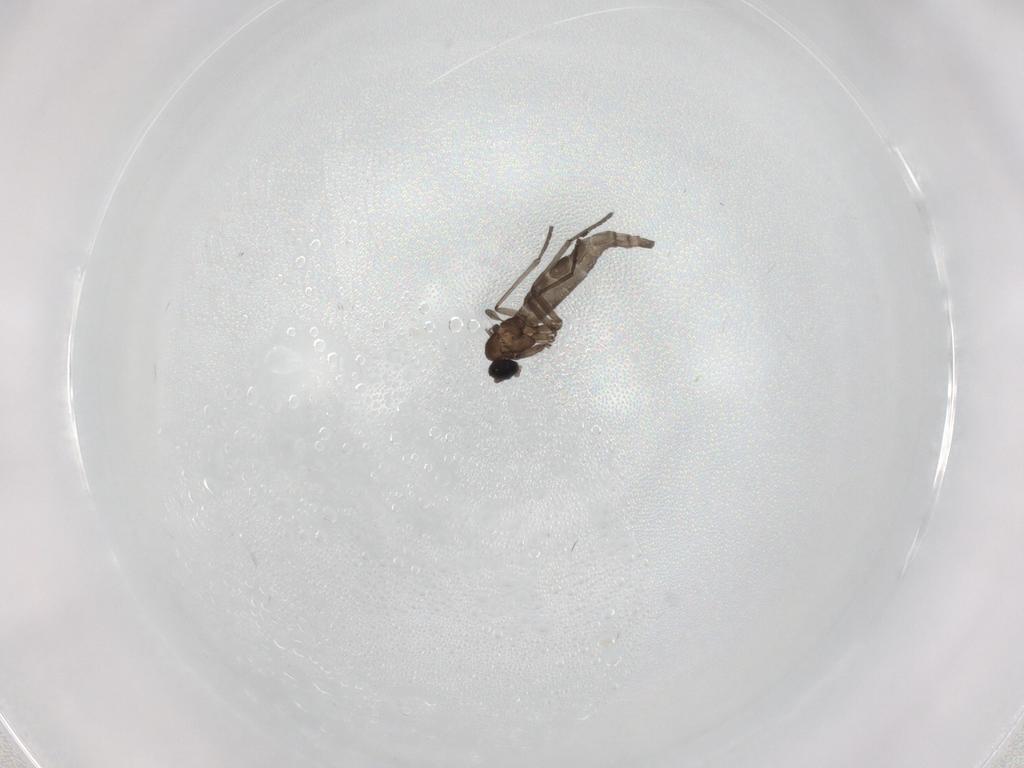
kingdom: Animalia
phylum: Arthropoda
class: Insecta
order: Diptera
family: Cecidomyiidae
